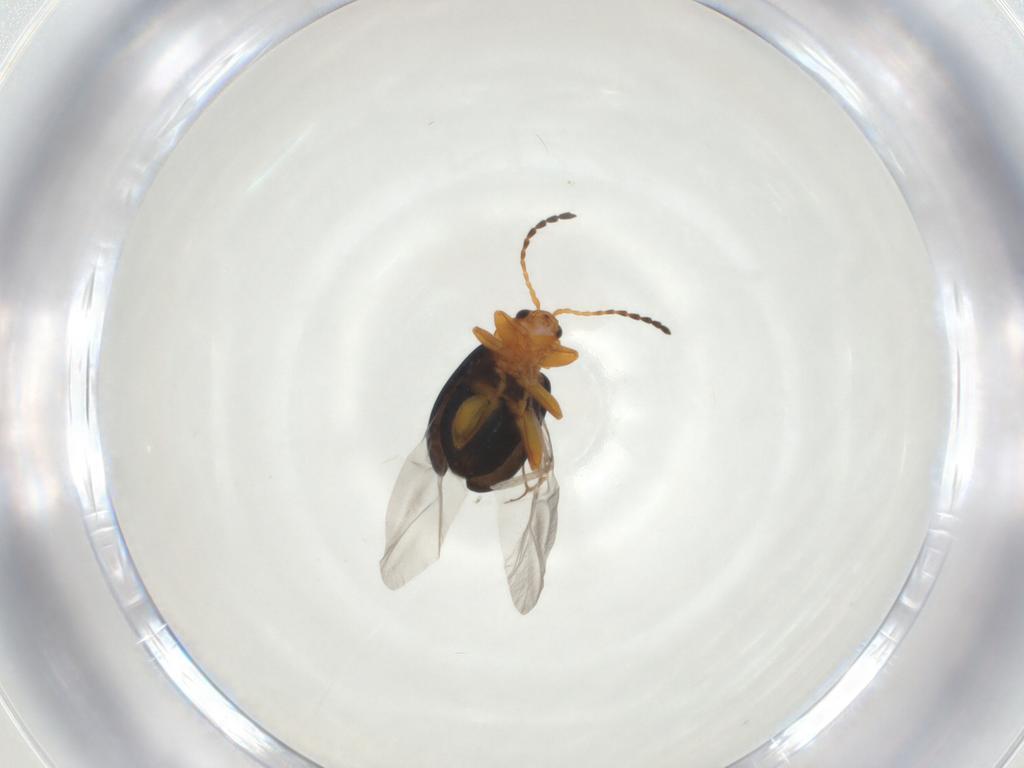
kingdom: Animalia
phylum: Arthropoda
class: Insecta
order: Coleoptera
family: Chrysomelidae
